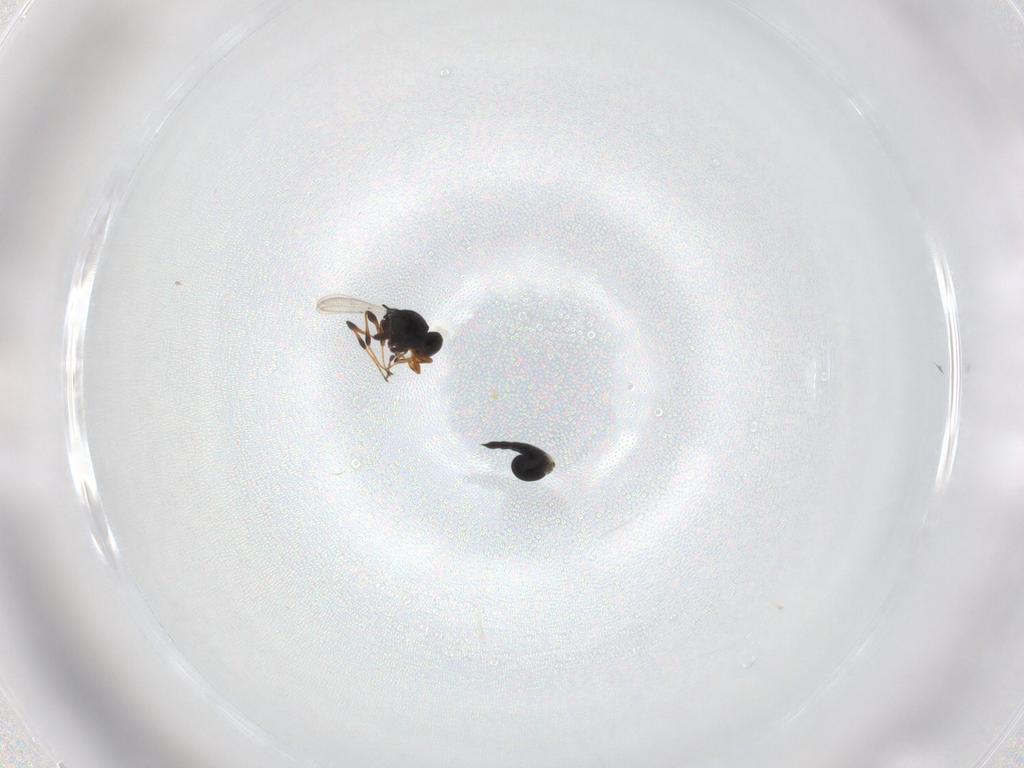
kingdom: Animalia
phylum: Arthropoda
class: Insecta
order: Hymenoptera
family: Platygastridae
